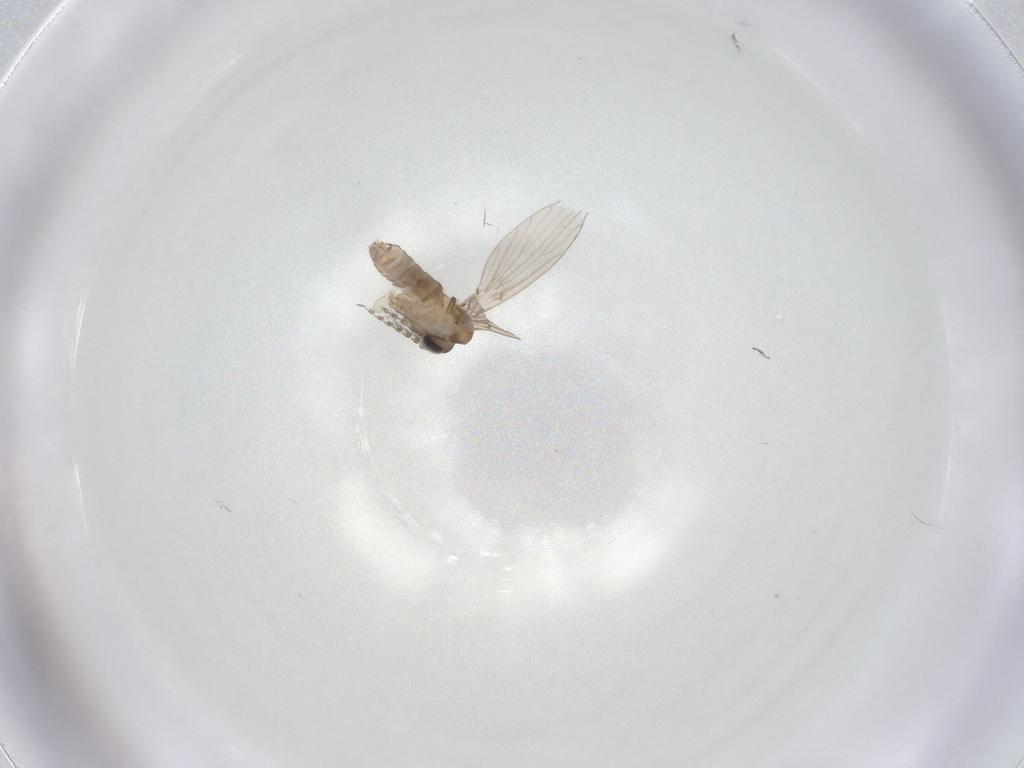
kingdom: Animalia
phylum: Arthropoda
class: Insecta
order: Diptera
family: Psychodidae
